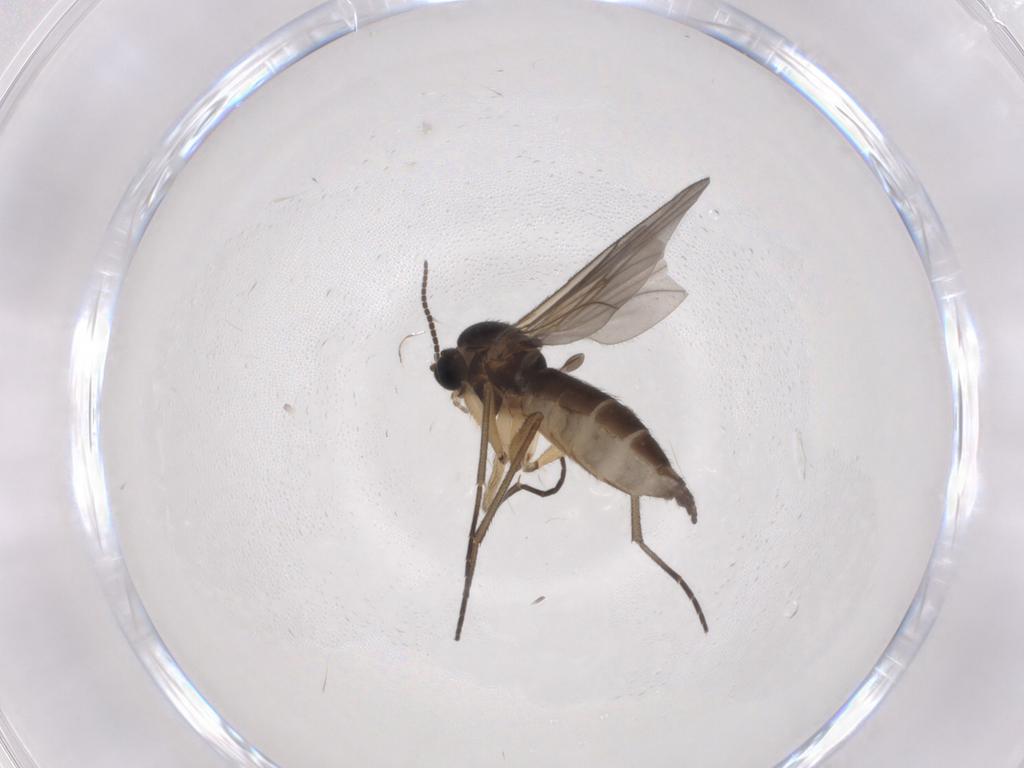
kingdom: Animalia
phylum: Arthropoda
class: Insecta
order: Diptera
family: Sciaridae
